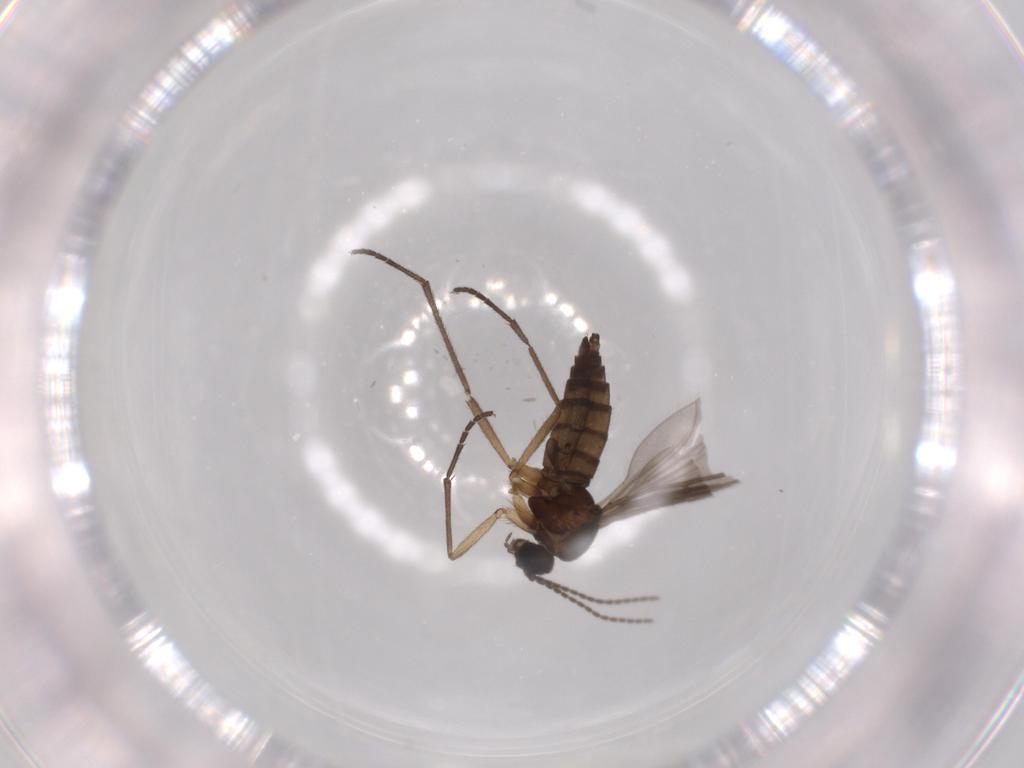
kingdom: Animalia
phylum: Arthropoda
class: Insecta
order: Diptera
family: Sciaridae
